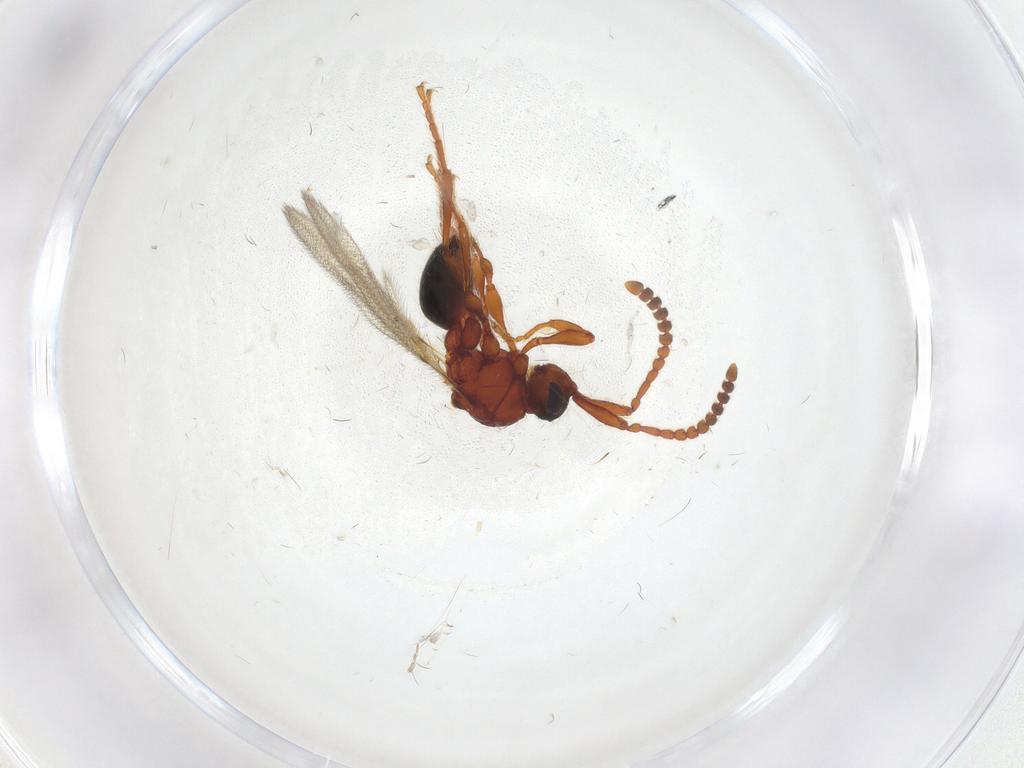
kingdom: Animalia
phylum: Arthropoda
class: Insecta
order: Hymenoptera
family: Diapriidae
